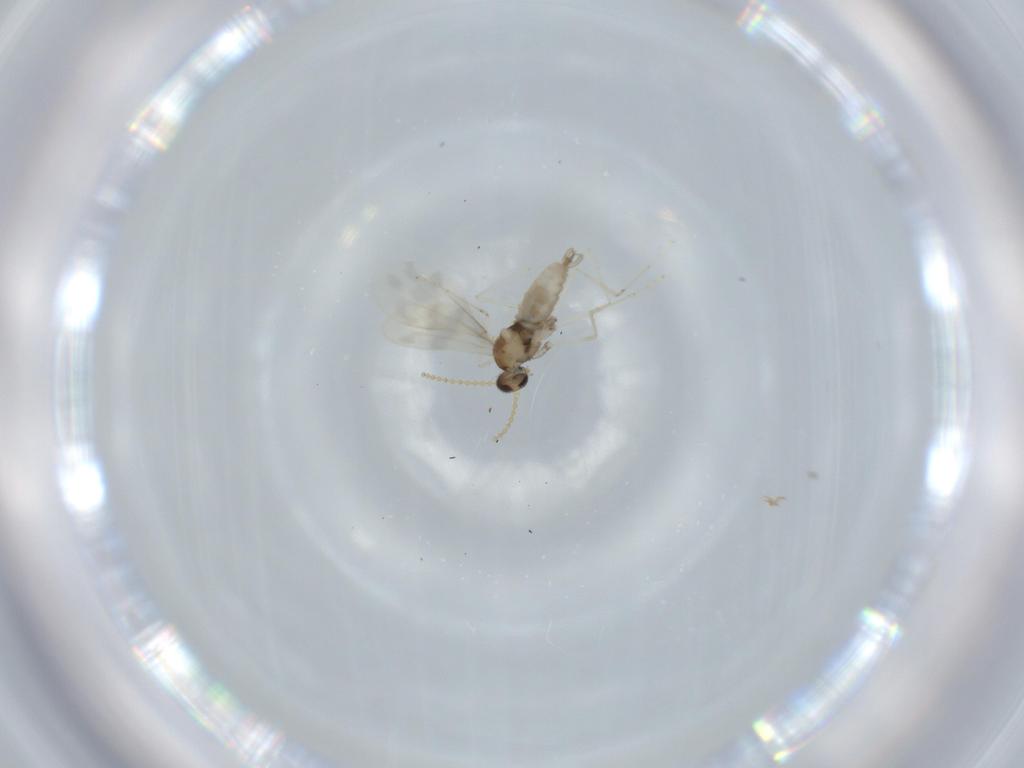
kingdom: Animalia
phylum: Arthropoda
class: Insecta
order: Diptera
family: Cecidomyiidae
